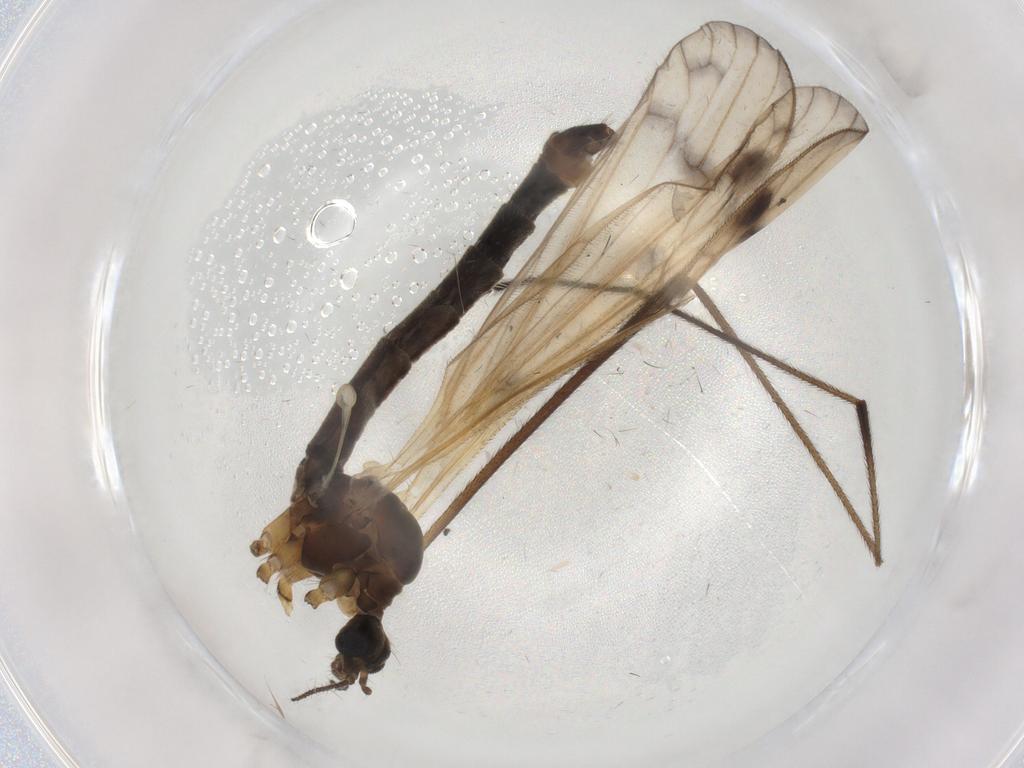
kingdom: Animalia
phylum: Arthropoda
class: Insecta
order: Diptera
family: Limoniidae
